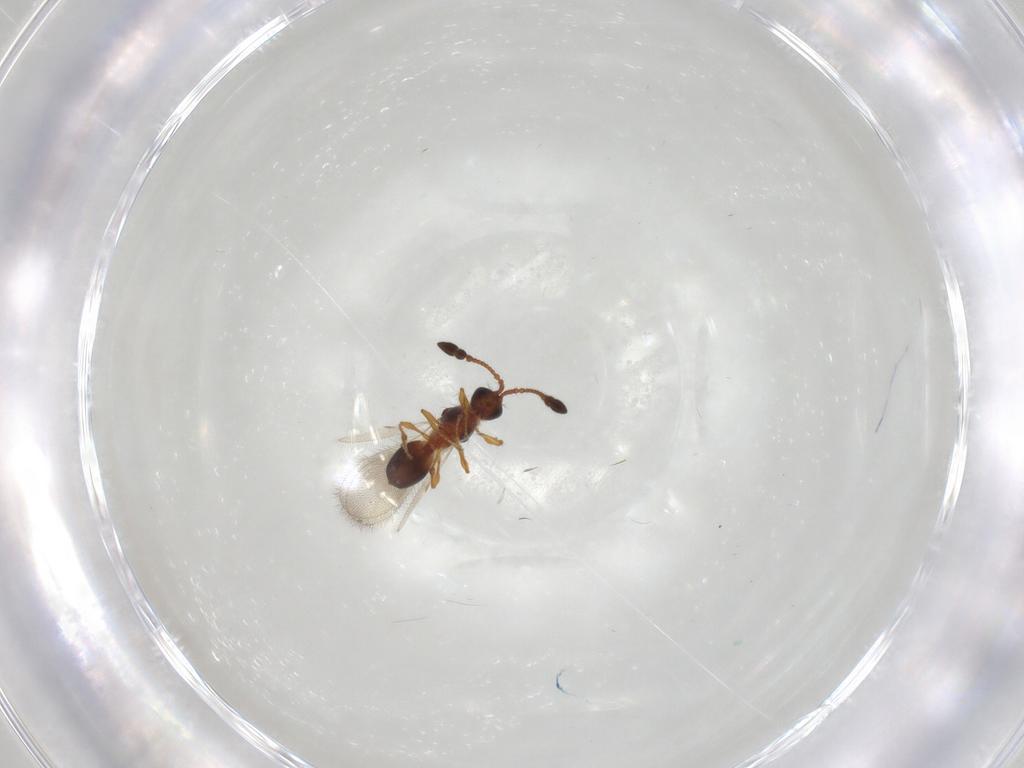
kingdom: Animalia
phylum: Arthropoda
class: Insecta
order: Hymenoptera
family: Diapriidae
